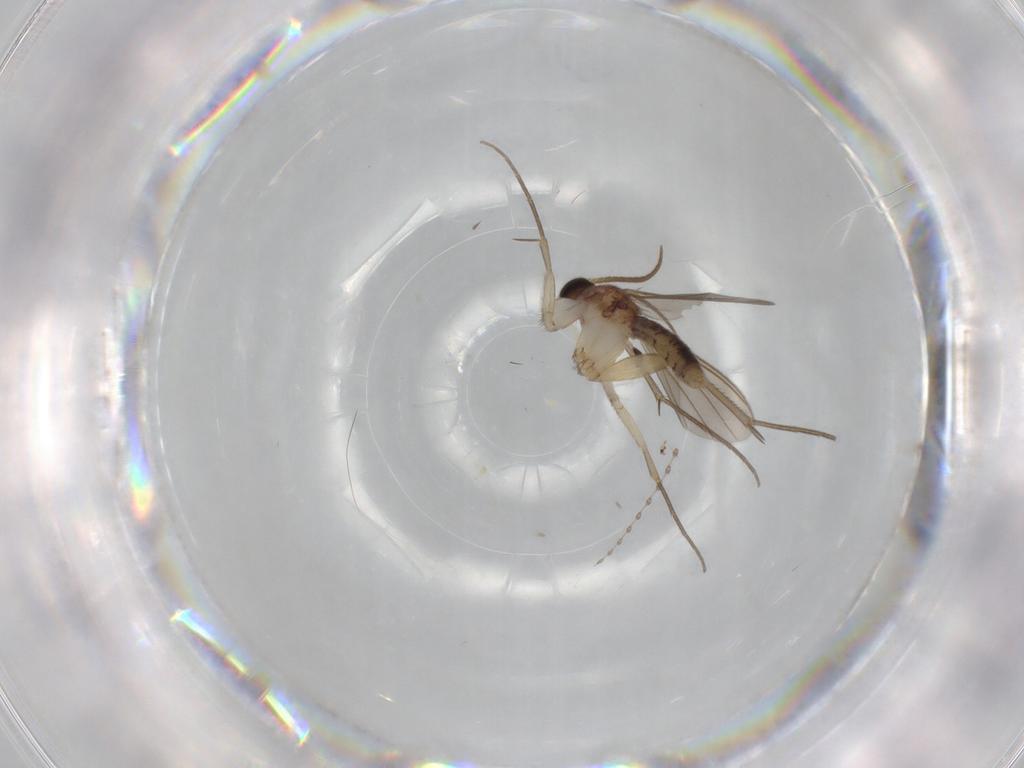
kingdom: Animalia
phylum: Arthropoda
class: Insecta
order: Diptera
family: Mycetophilidae
